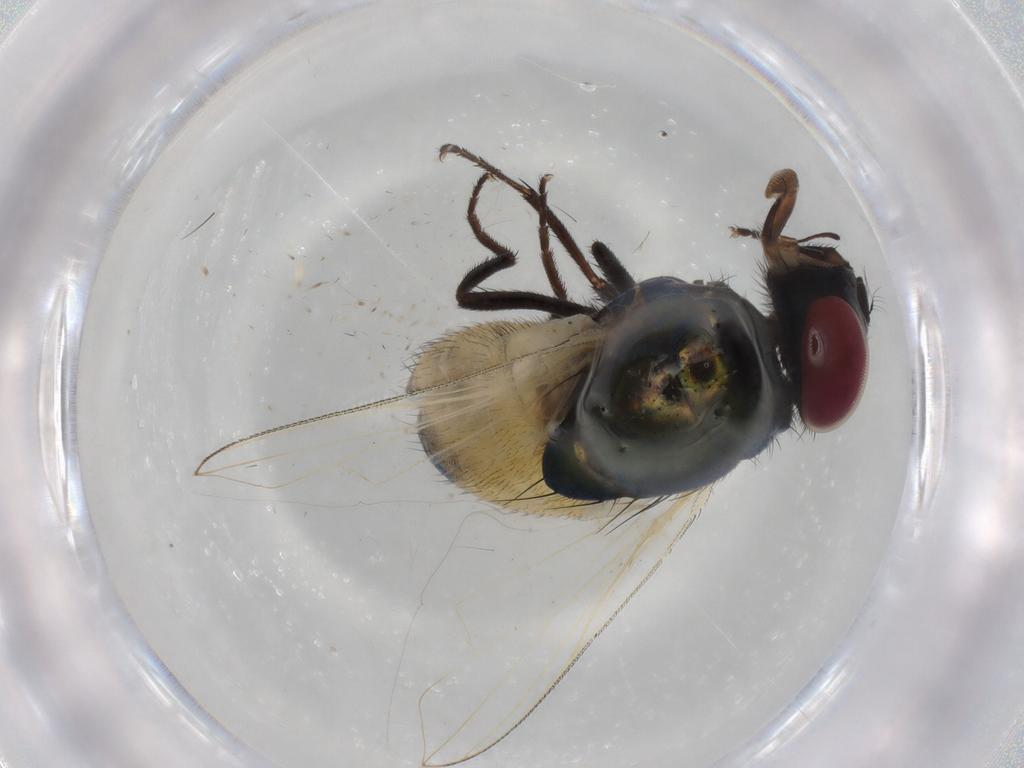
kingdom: Animalia
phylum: Arthropoda
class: Insecta
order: Diptera
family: Muscidae
